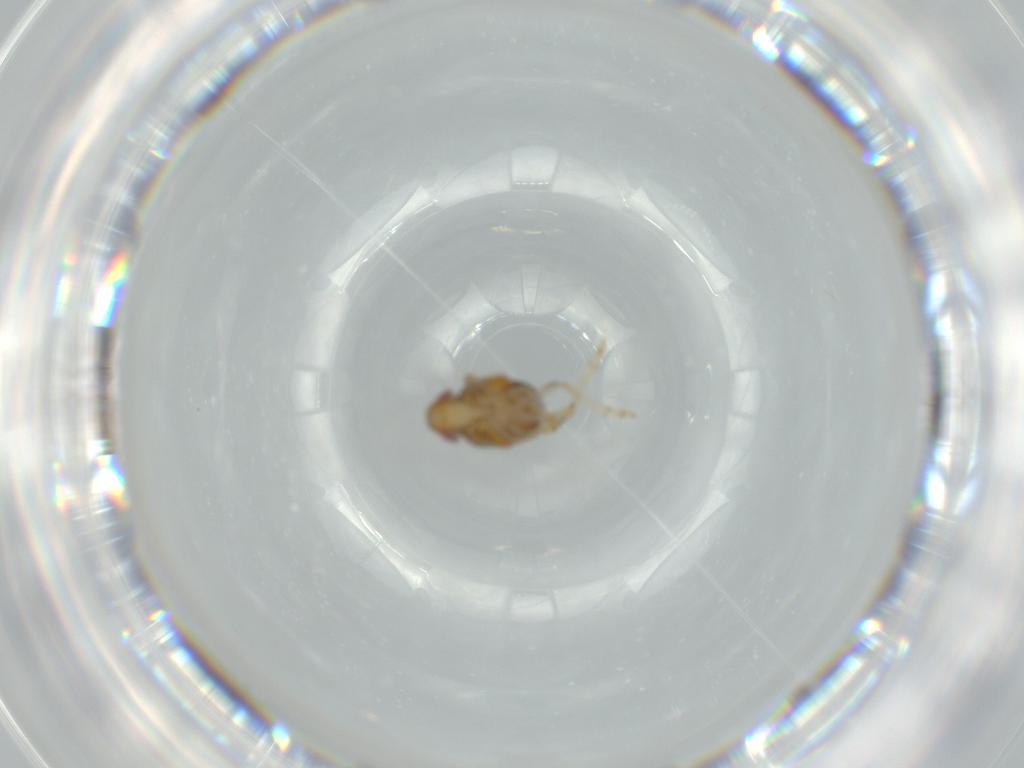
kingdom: Animalia
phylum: Arthropoda
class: Insecta
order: Hemiptera
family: Issidae
